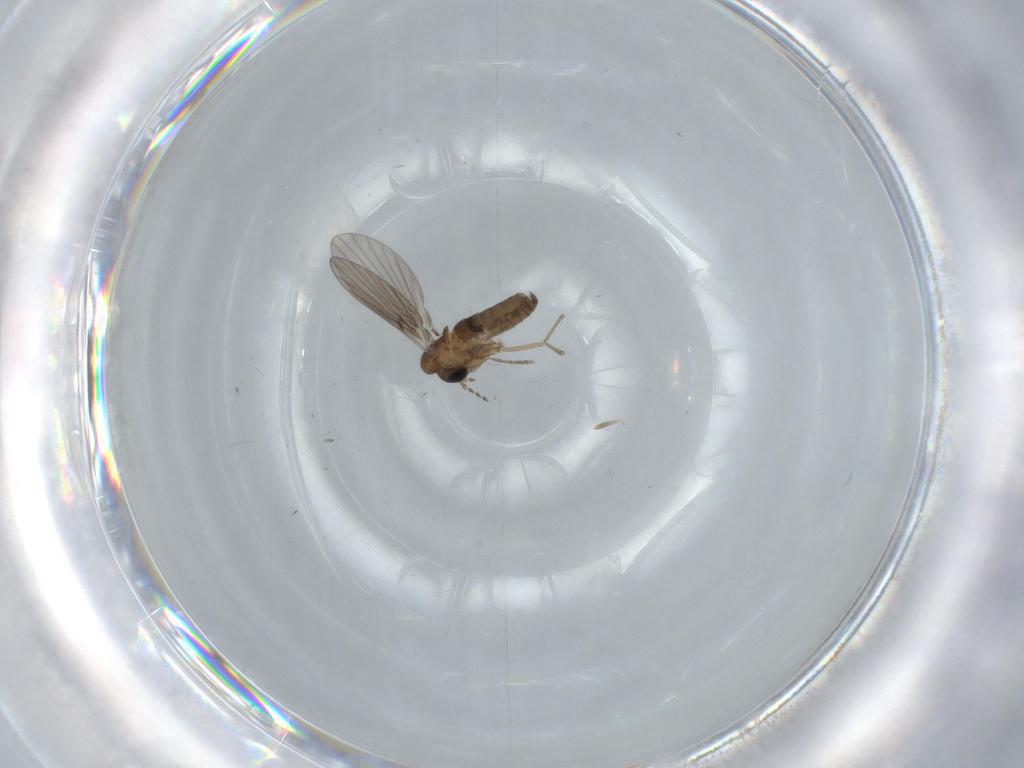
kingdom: Animalia
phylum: Arthropoda
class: Insecta
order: Diptera
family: Psychodidae
